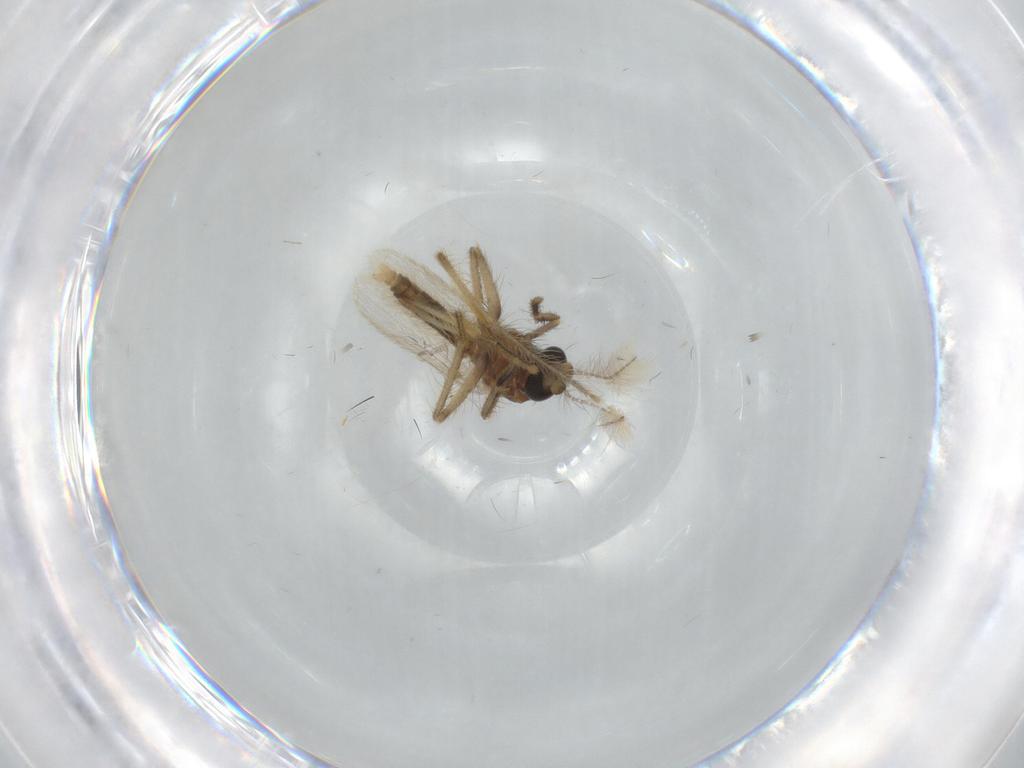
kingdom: Animalia
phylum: Arthropoda
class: Insecta
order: Diptera
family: Corethrellidae
